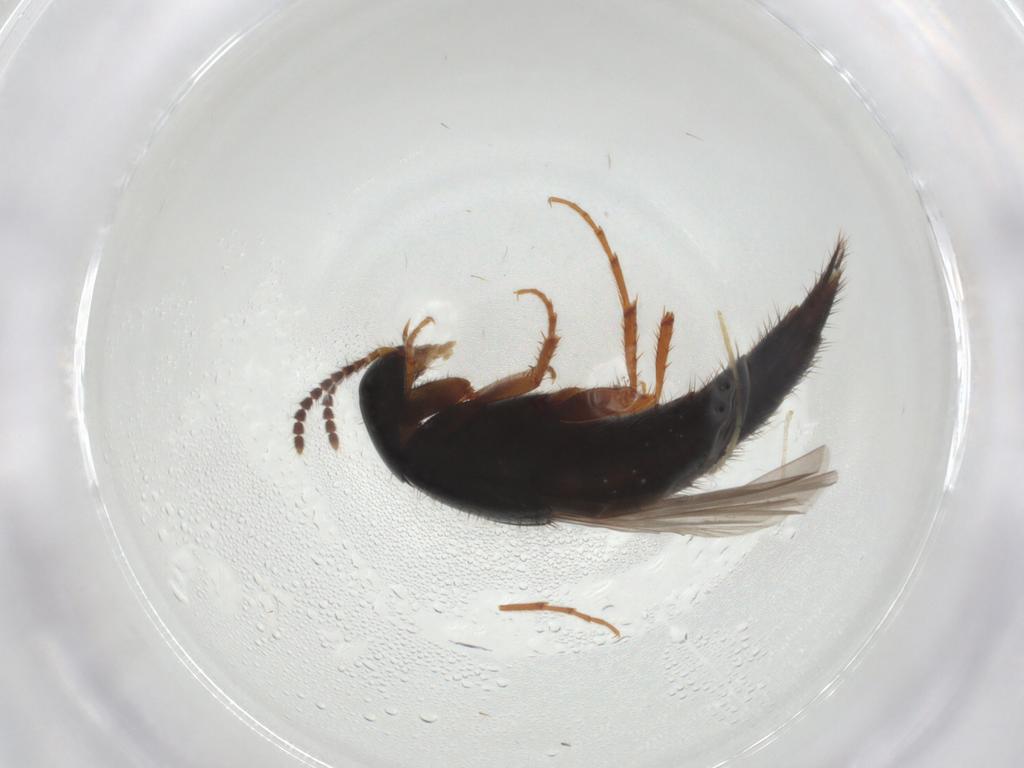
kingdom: Animalia
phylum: Arthropoda
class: Insecta
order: Coleoptera
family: Staphylinidae
